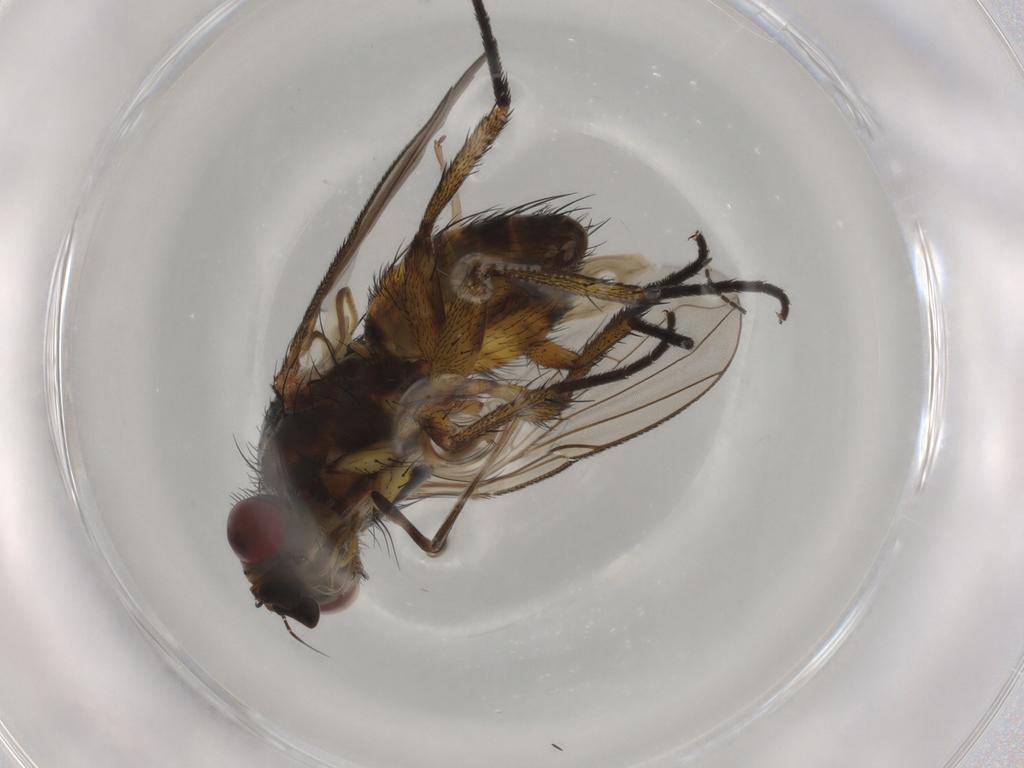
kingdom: Animalia
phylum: Arthropoda
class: Insecta
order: Diptera
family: Tachinidae
